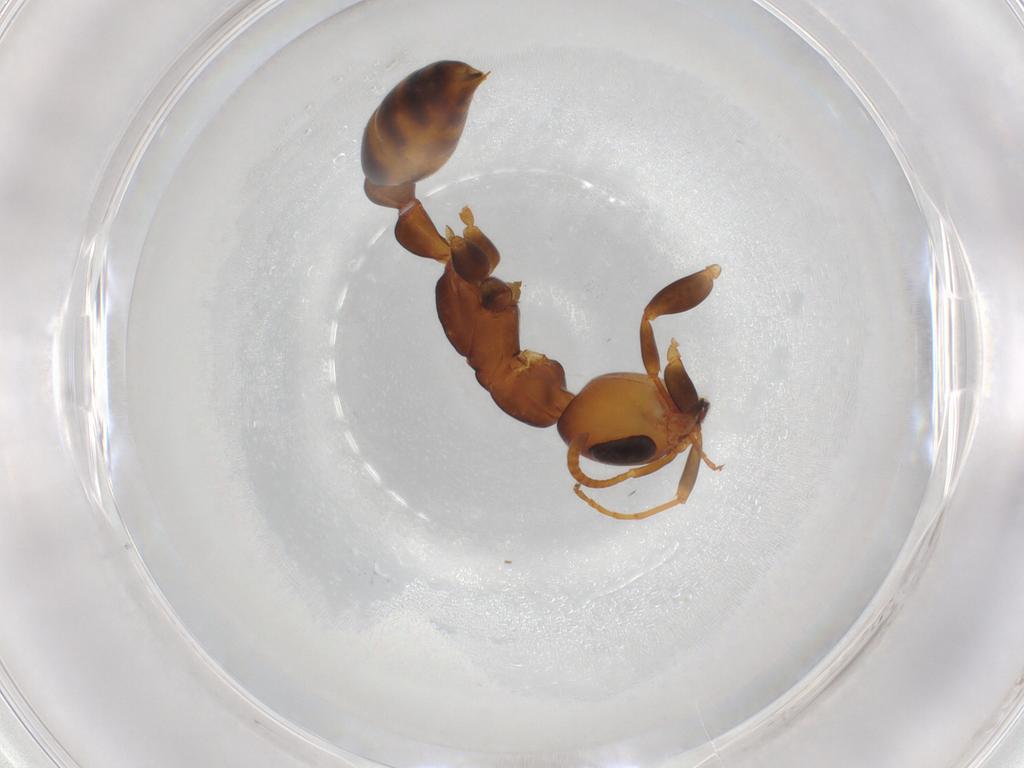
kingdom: Animalia
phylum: Arthropoda
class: Insecta
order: Hymenoptera
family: Formicidae
